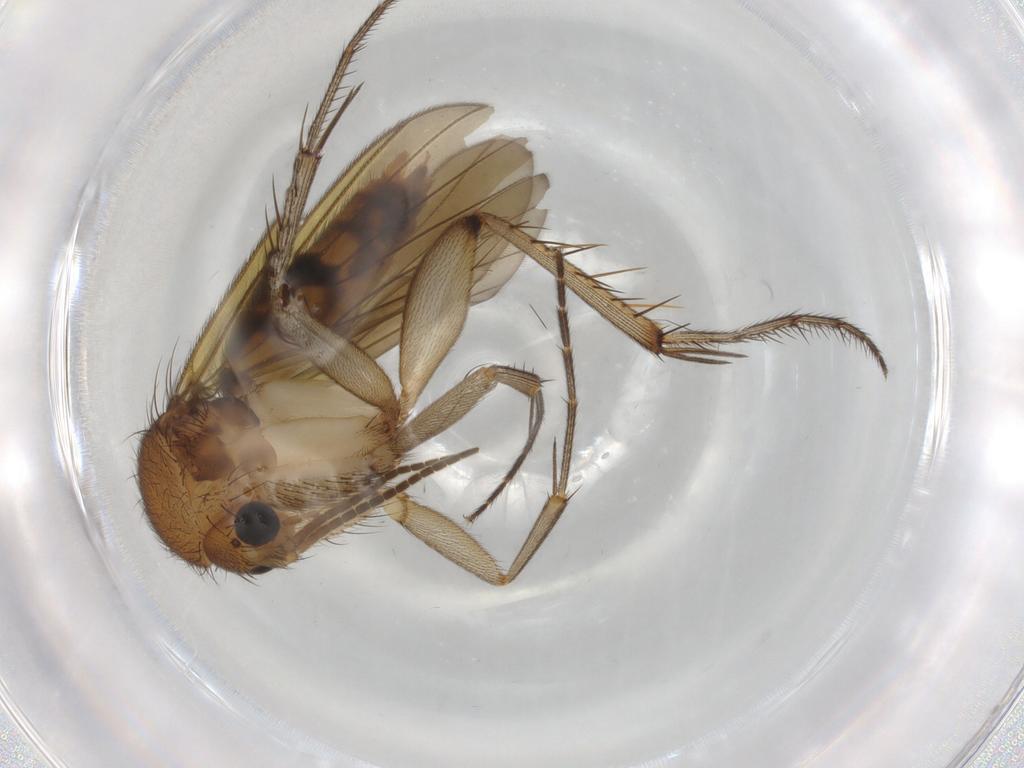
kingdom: Animalia
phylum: Arthropoda
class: Insecta
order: Diptera
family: Mycetophilidae
